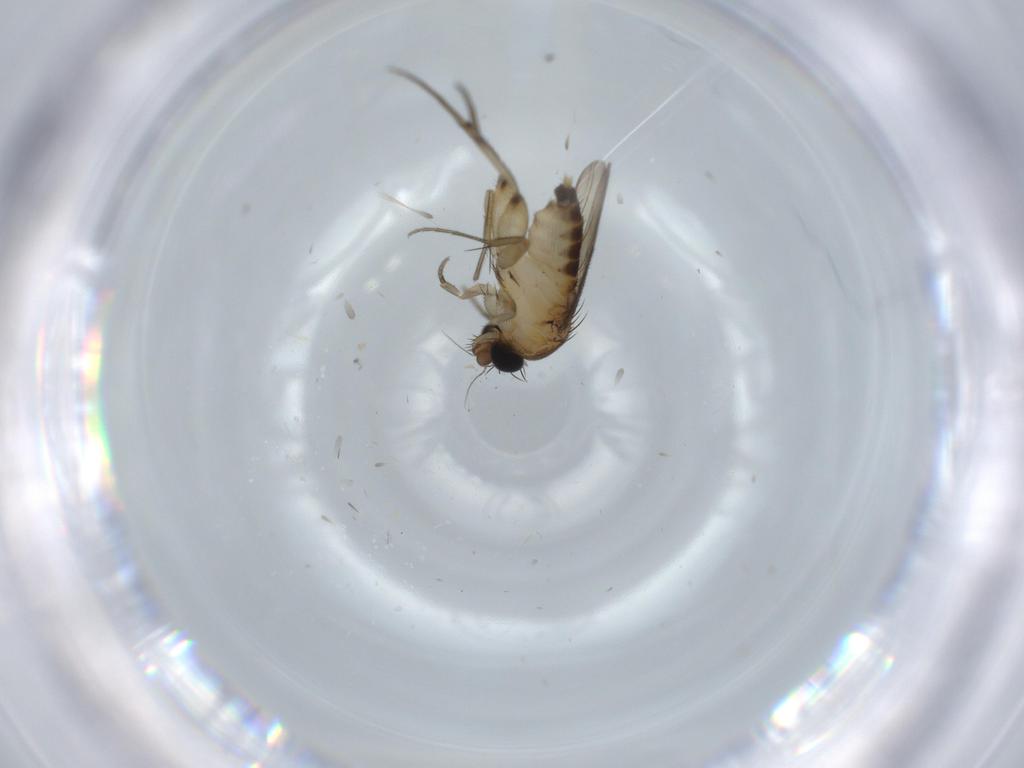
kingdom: Animalia
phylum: Arthropoda
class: Insecta
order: Diptera
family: Phoridae
